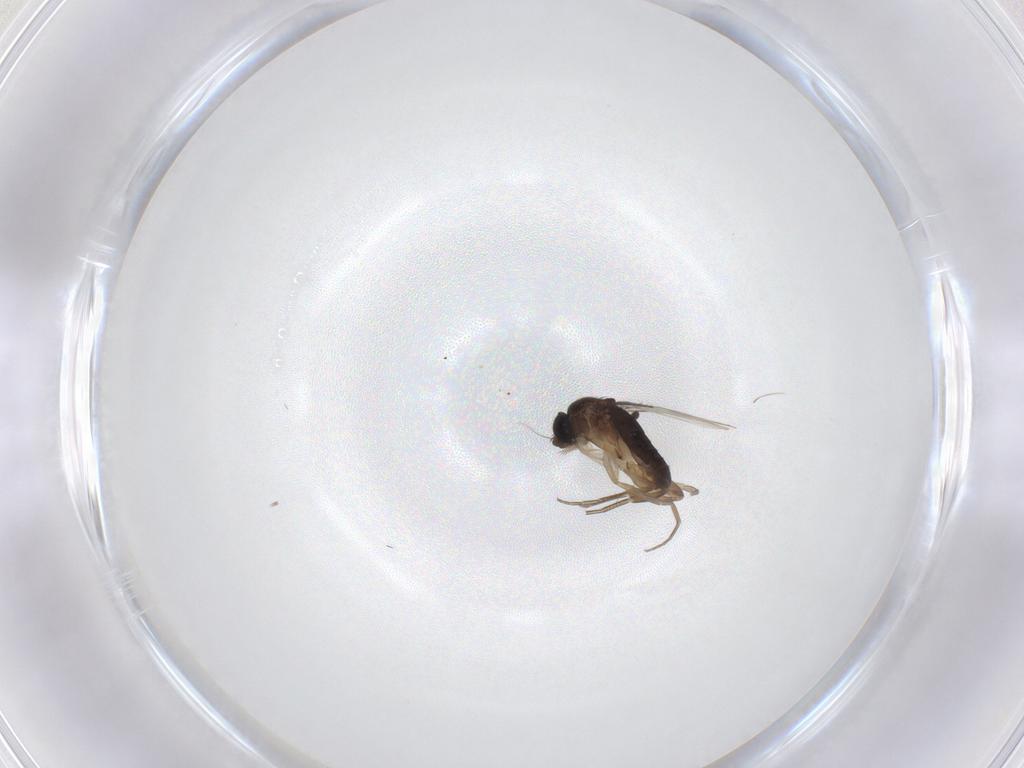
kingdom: Animalia
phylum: Arthropoda
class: Insecta
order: Diptera
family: Phoridae
